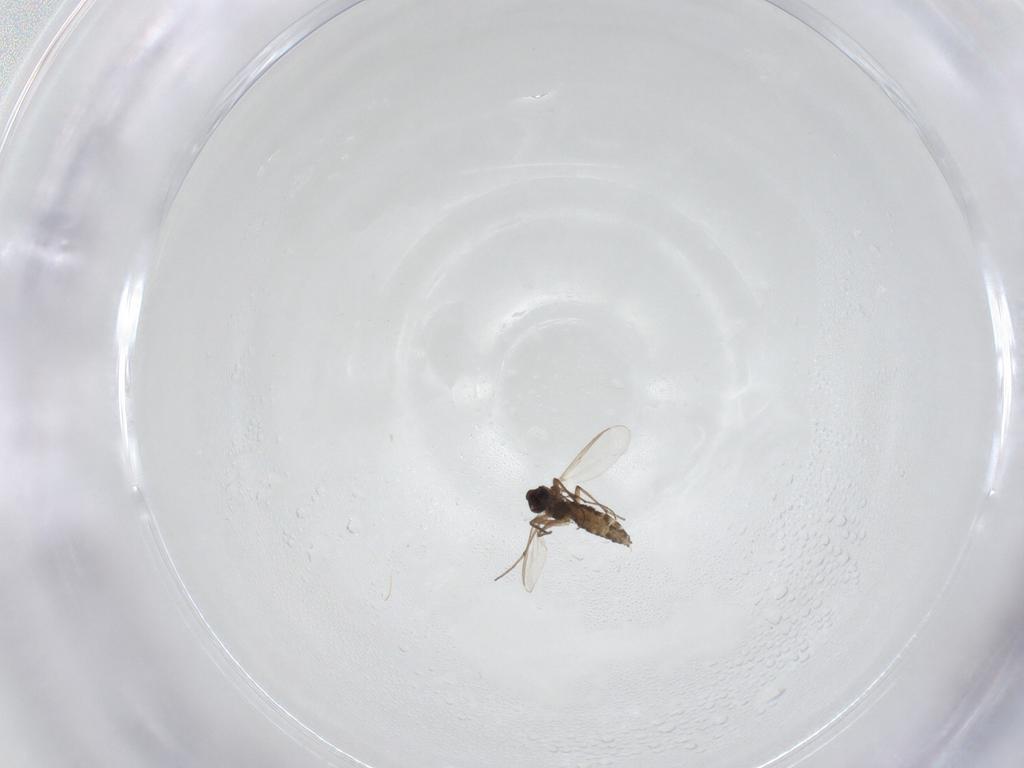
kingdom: Animalia
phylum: Arthropoda
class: Insecta
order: Diptera
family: Chironomidae
